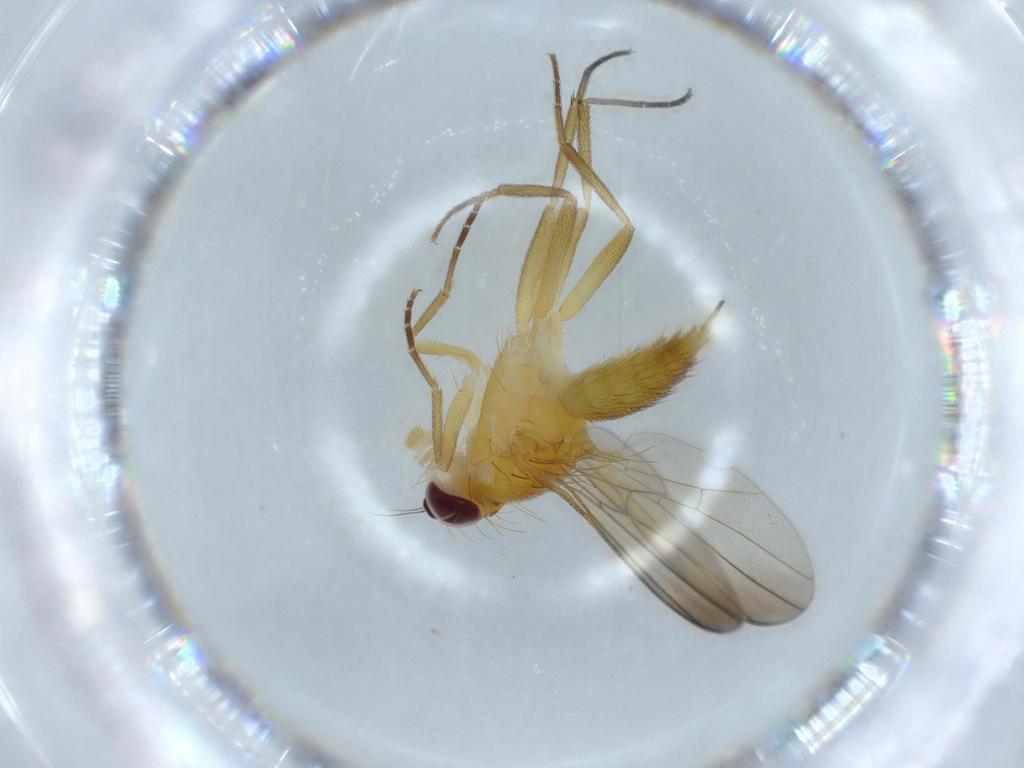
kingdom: Animalia
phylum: Arthropoda
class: Insecta
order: Diptera
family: Clusiidae
